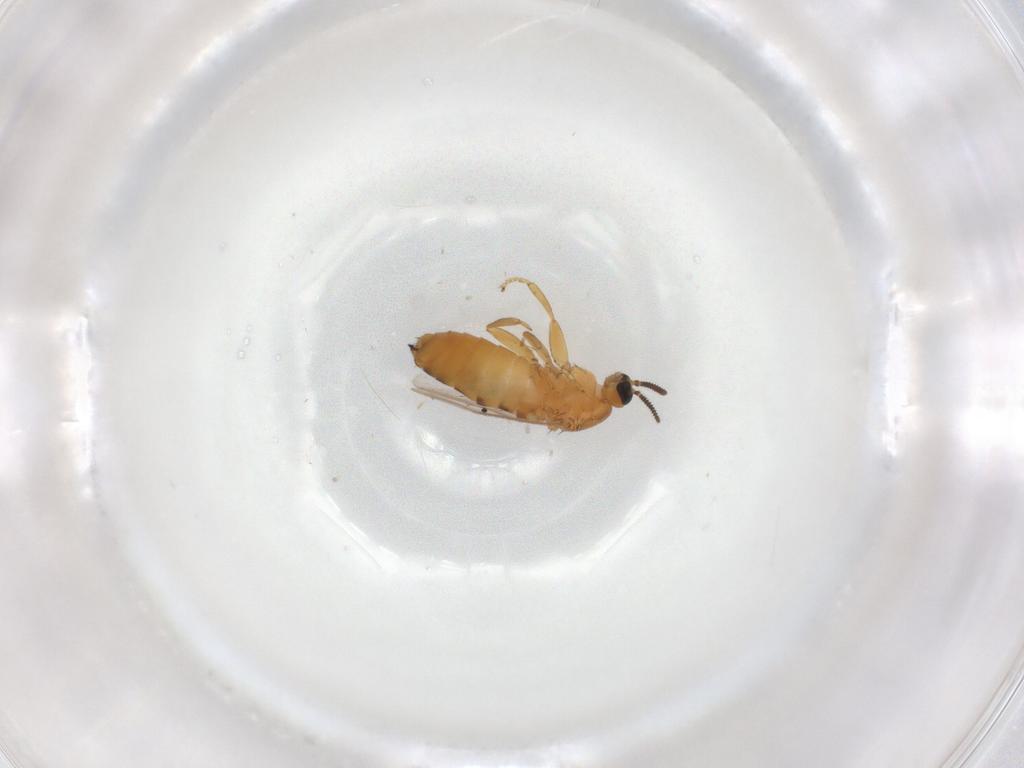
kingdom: Animalia
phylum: Arthropoda
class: Insecta
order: Diptera
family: Scatopsidae
